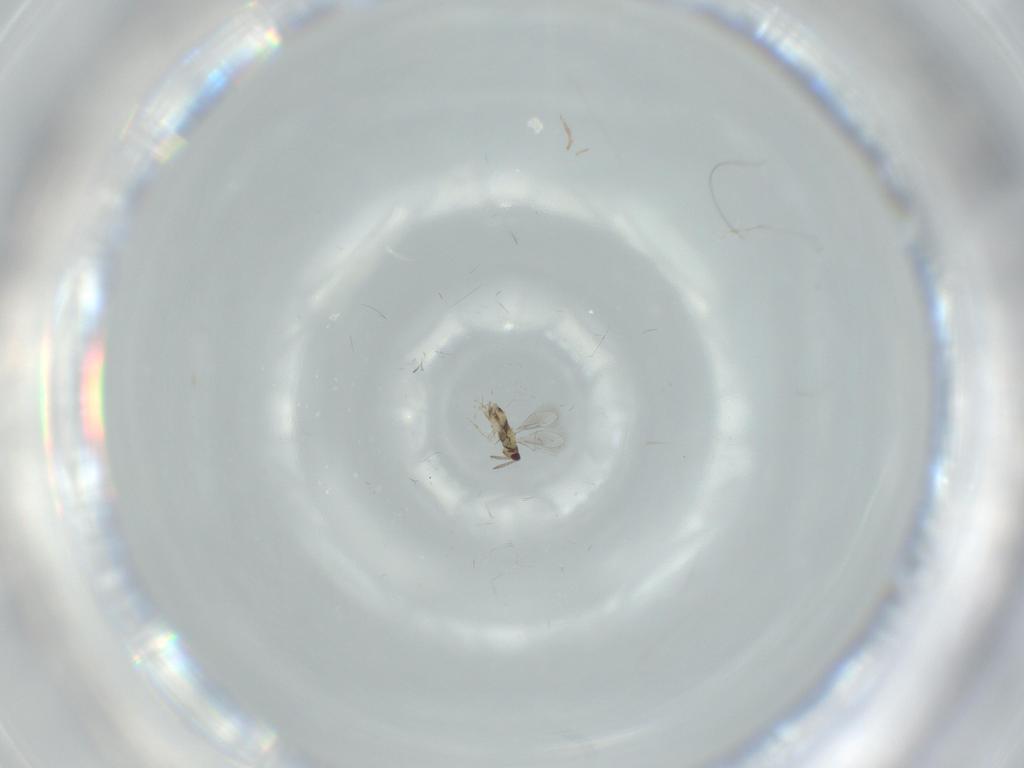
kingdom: Animalia
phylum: Arthropoda
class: Insecta
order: Hymenoptera
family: Aphelinidae
